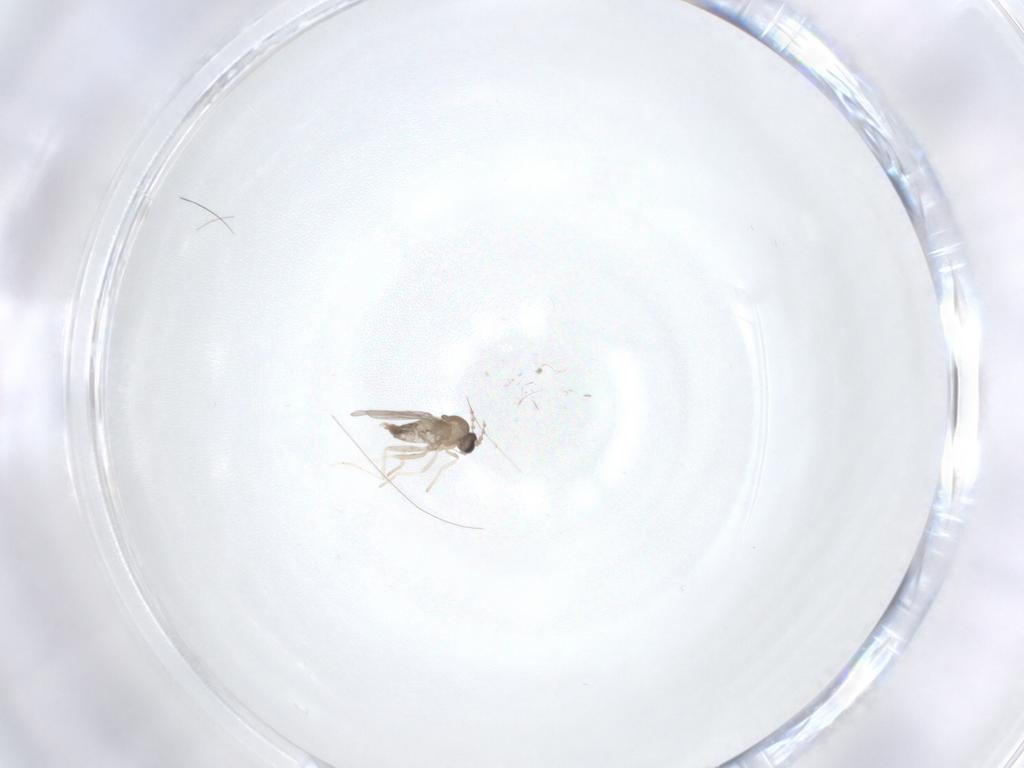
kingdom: Animalia
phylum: Arthropoda
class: Insecta
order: Diptera
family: Cecidomyiidae
